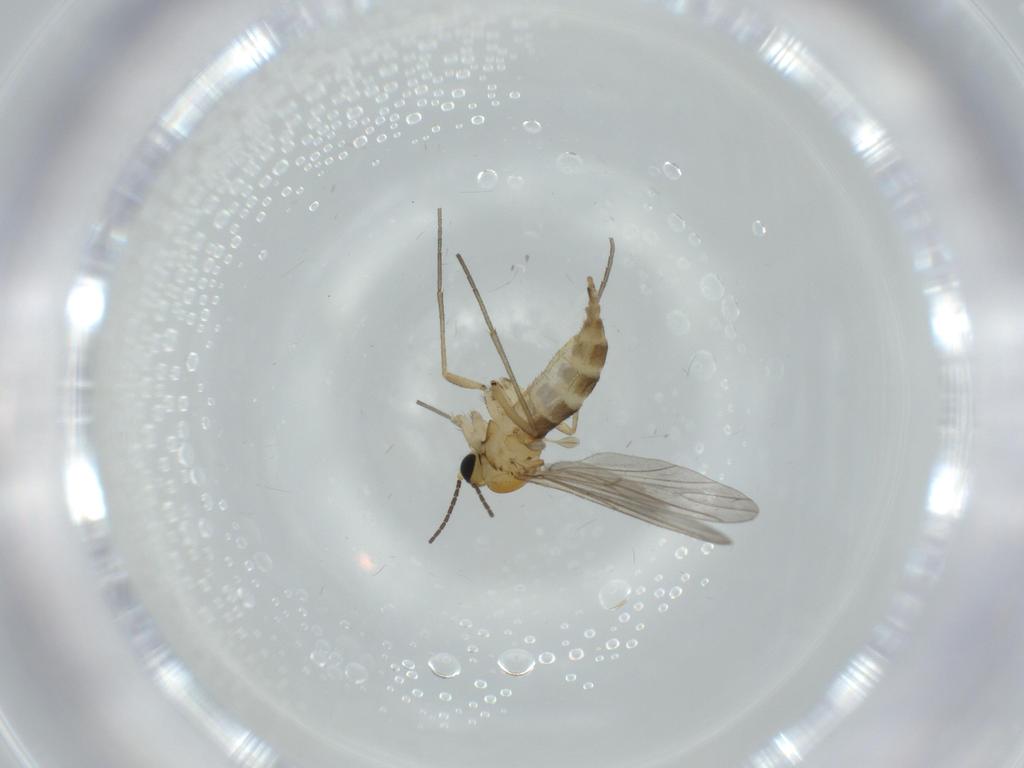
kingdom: Animalia
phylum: Arthropoda
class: Insecta
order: Diptera
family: Sciaridae
